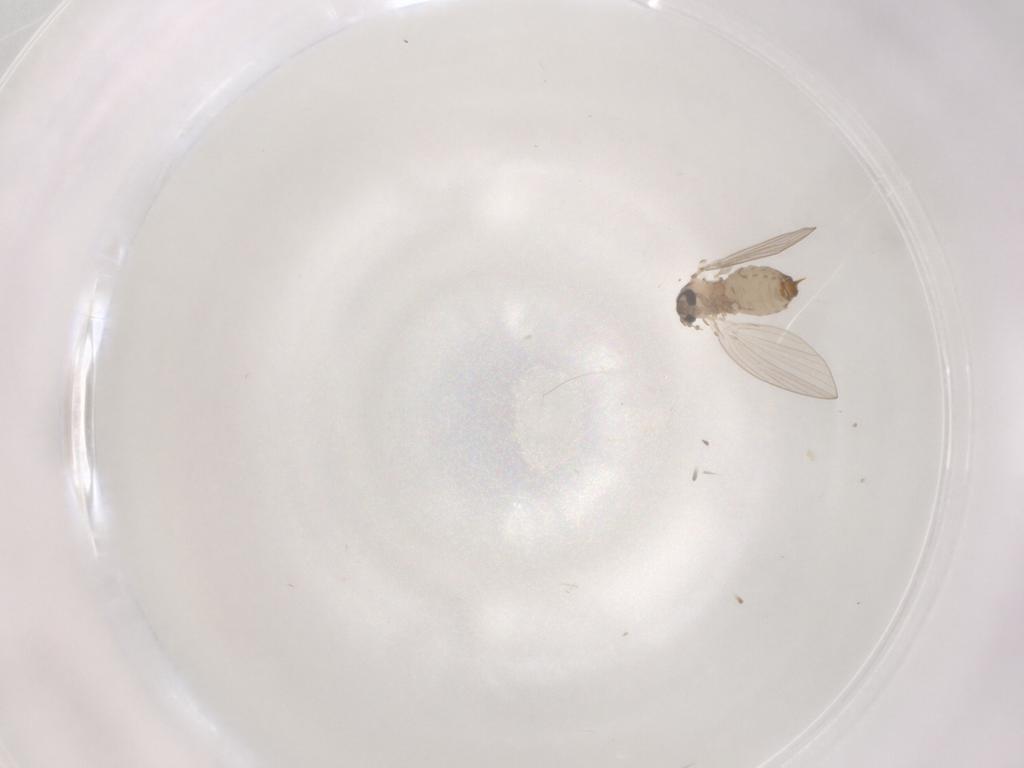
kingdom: Animalia
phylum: Arthropoda
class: Insecta
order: Diptera
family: Psychodidae
